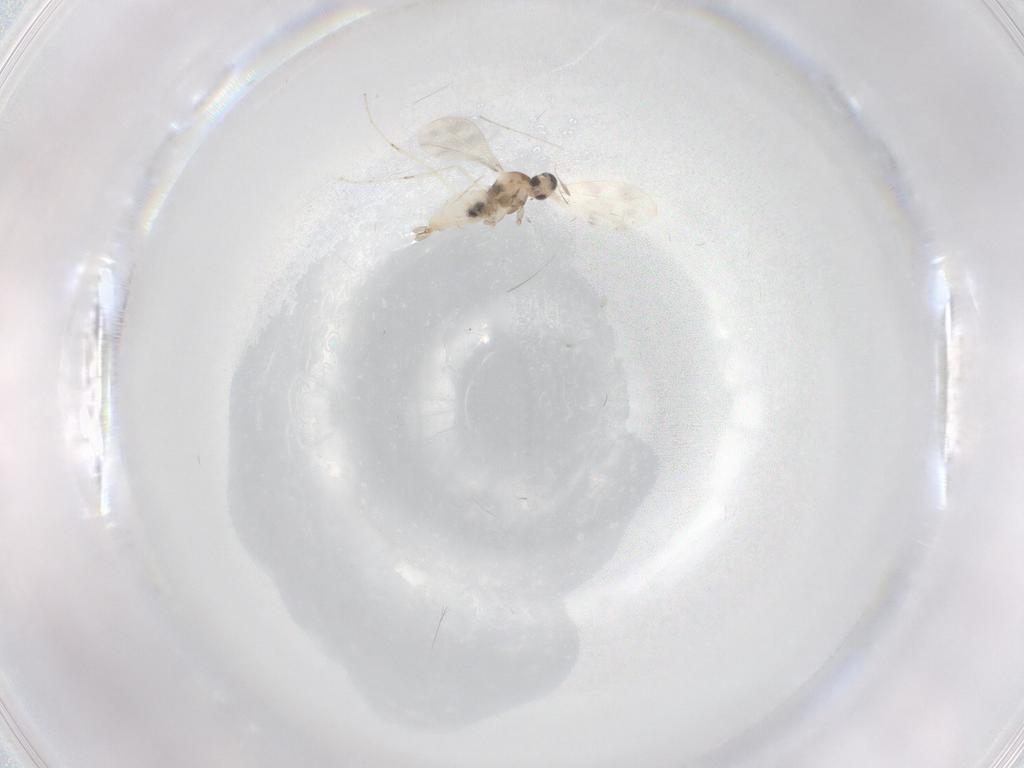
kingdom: Animalia
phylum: Arthropoda
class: Insecta
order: Diptera
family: Cecidomyiidae
